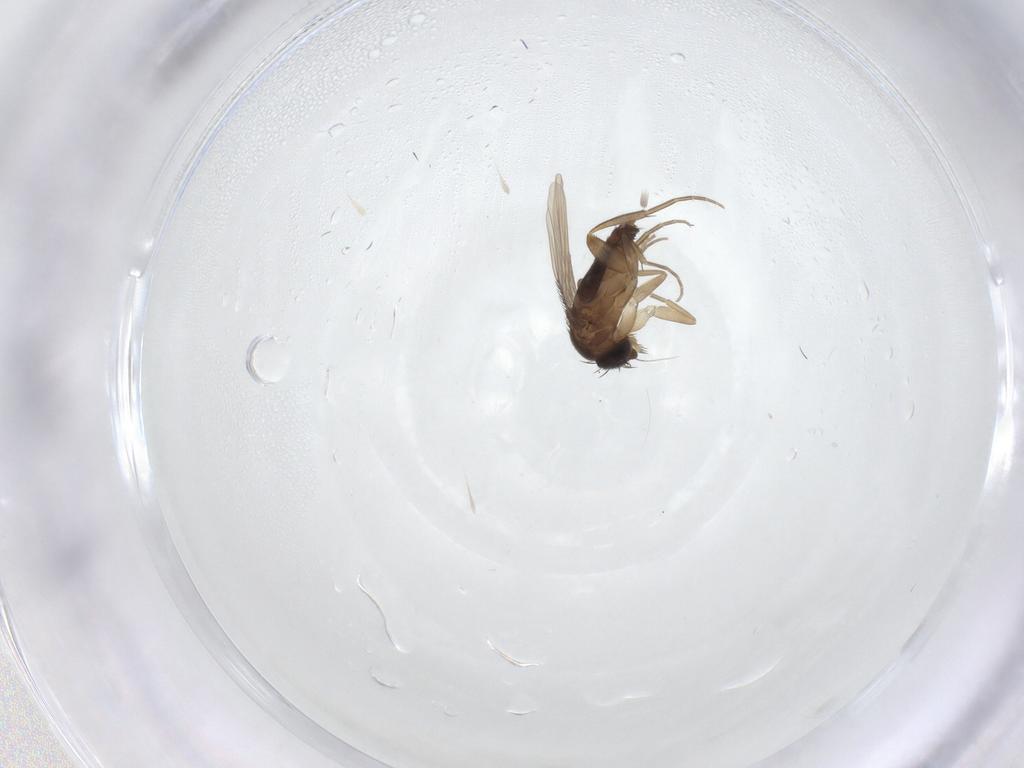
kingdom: Animalia
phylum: Arthropoda
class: Insecta
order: Diptera
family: Phoridae
